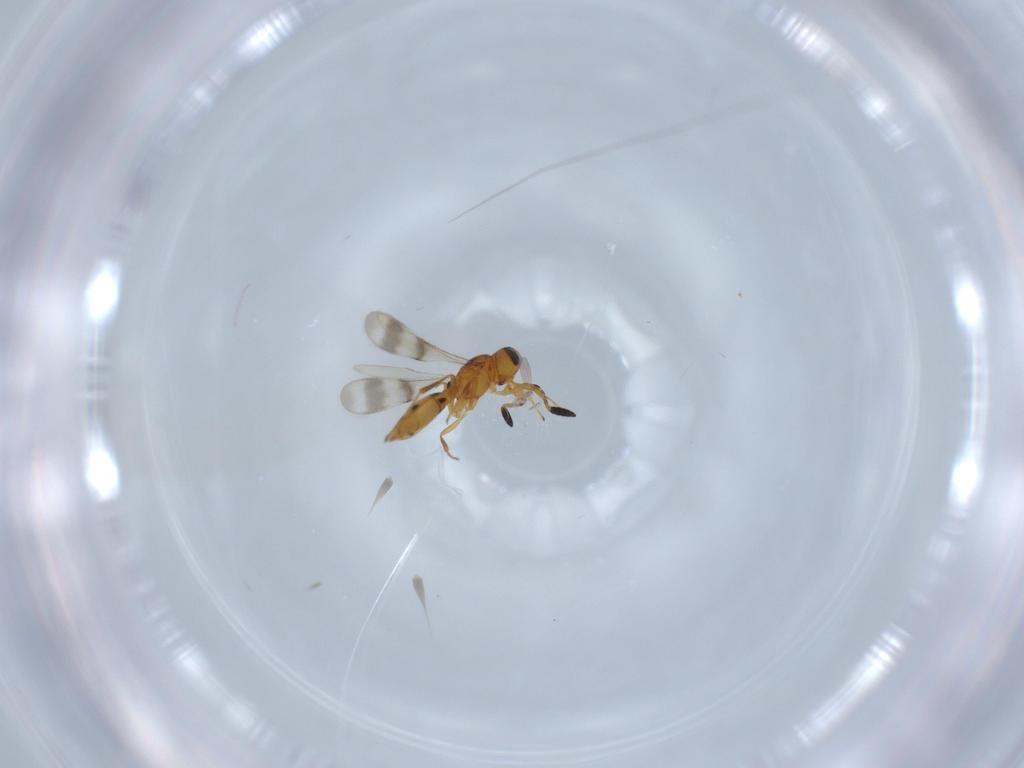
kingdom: Animalia
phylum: Arthropoda
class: Insecta
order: Hymenoptera
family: Scelionidae
